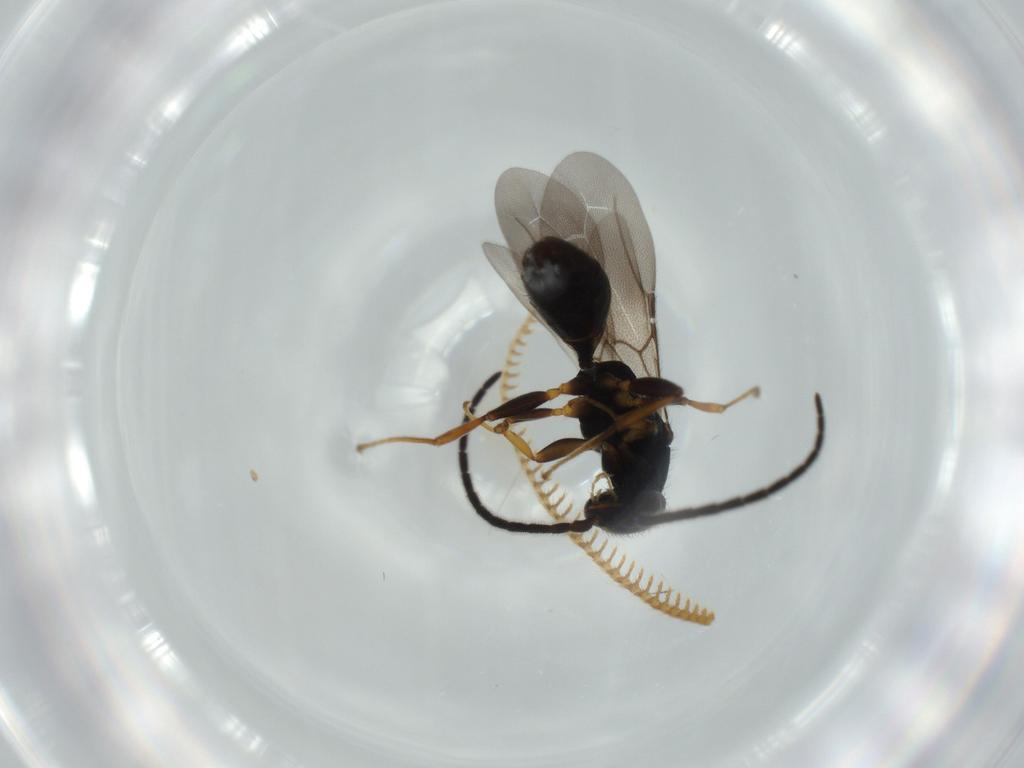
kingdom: Animalia
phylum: Arthropoda
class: Insecta
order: Hymenoptera
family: Bethylidae
